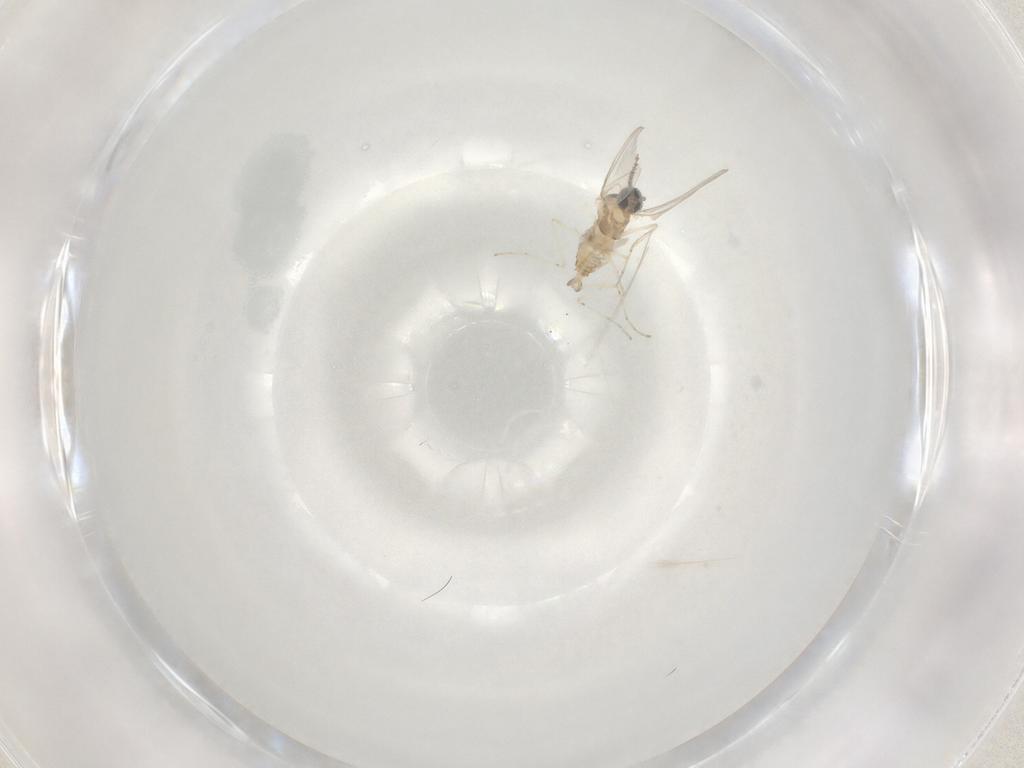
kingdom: Animalia
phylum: Arthropoda
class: Insecta
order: Diptera
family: Cecidomyiidae
